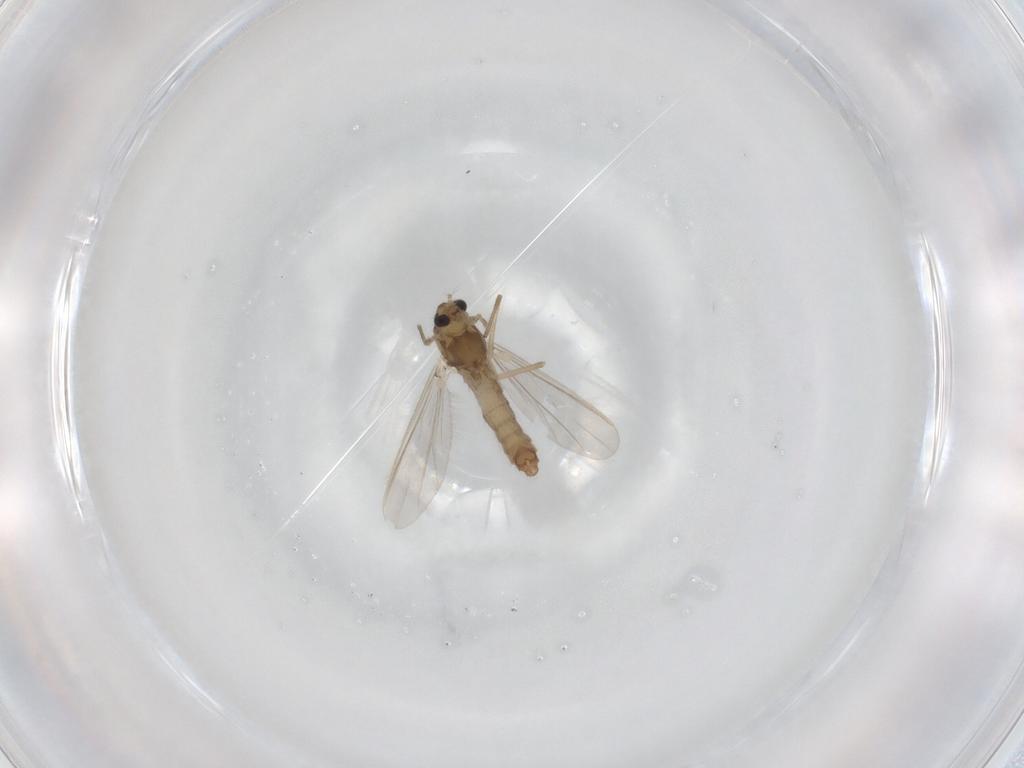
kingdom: Animalia
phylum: Arthropoda
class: Insecta
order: Diptera
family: Chironomidae
